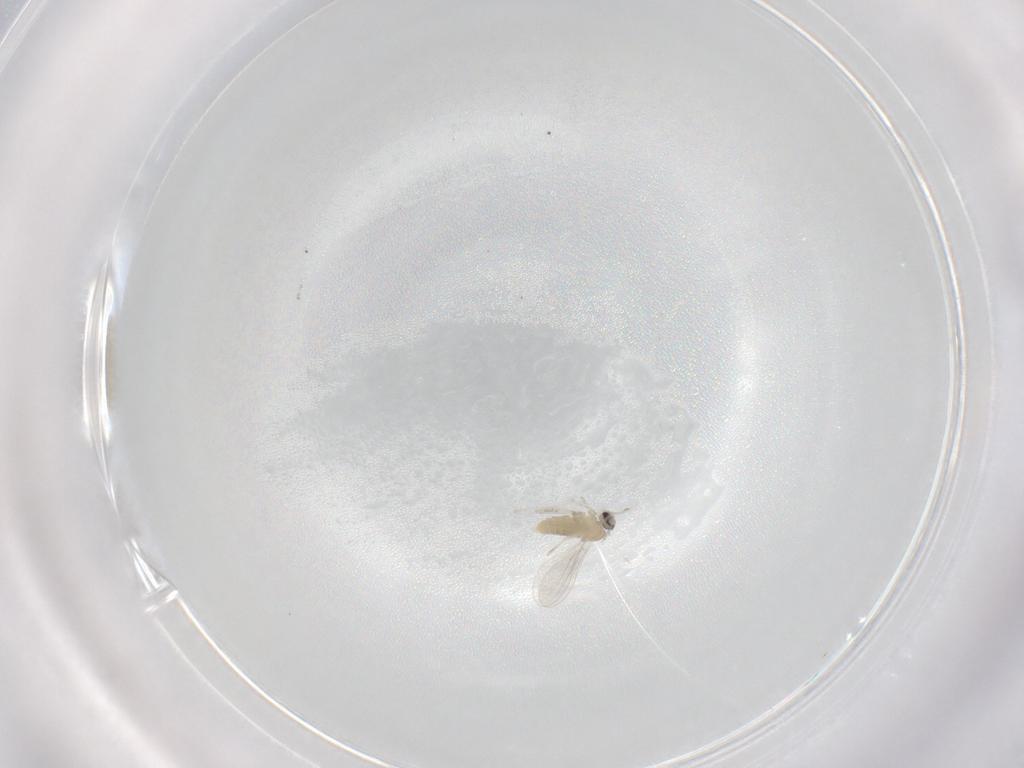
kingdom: Animalia
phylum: Arthropoda
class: Insecta
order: Diptera
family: Cecidomyiidae
